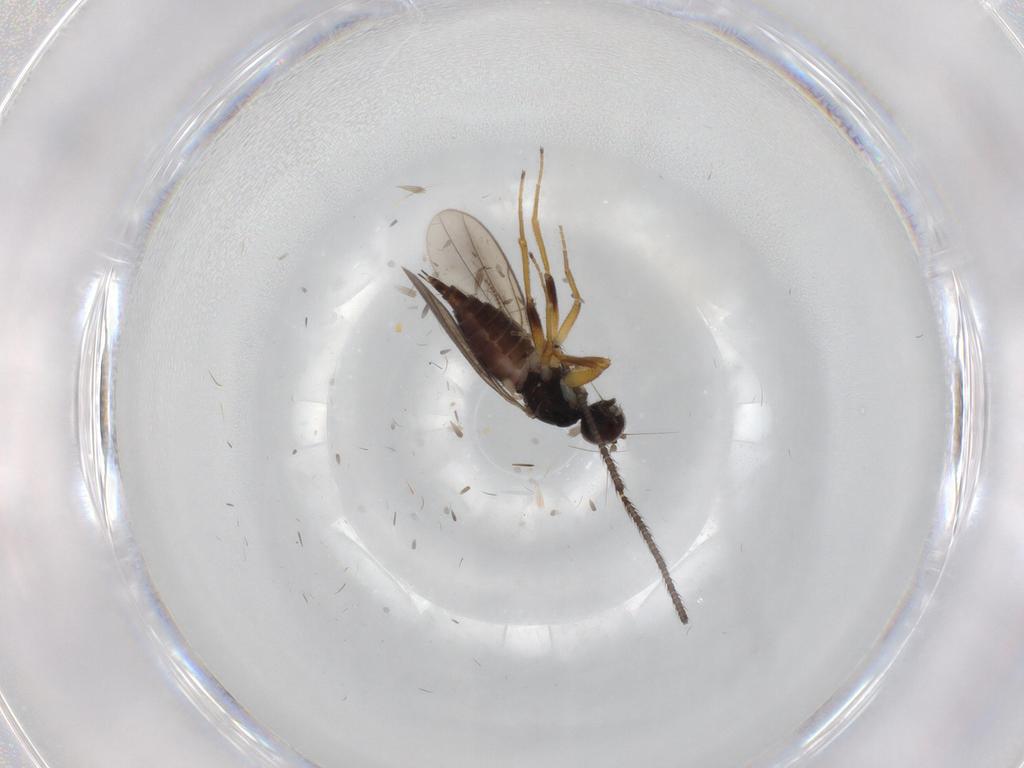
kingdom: Animalia
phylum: Arthropoda
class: Insecta
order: Diptera
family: Hybotidae
